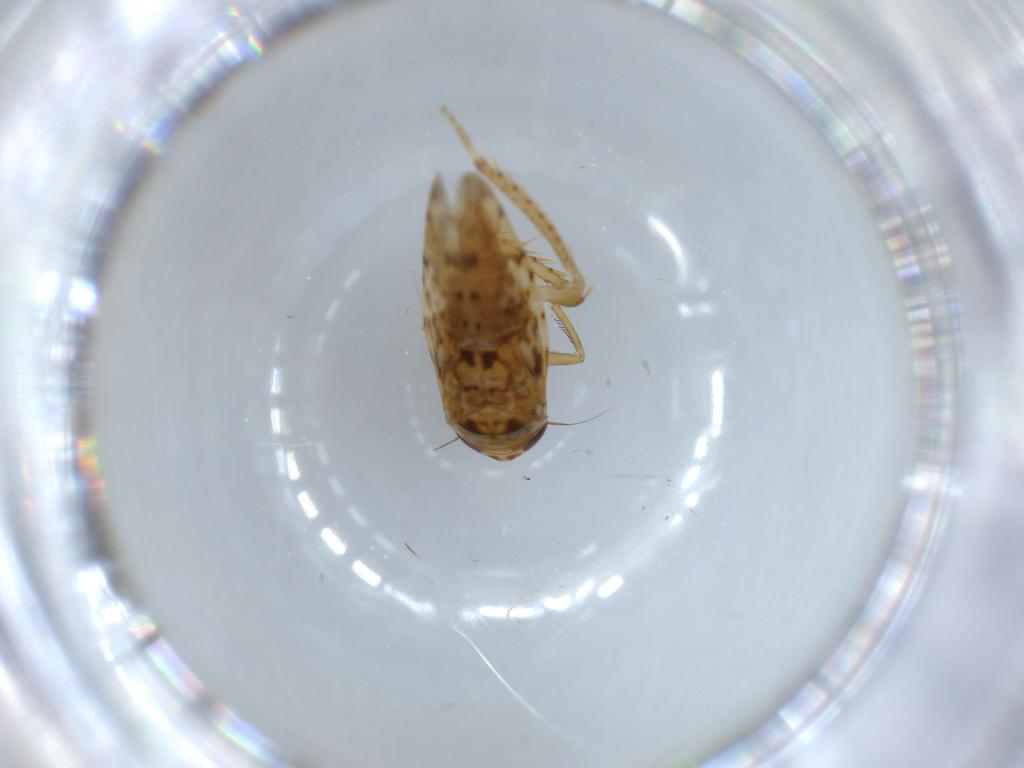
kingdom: Animalia
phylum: Arthropoda
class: Insecta
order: Hemiptera
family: Cicadellidae
